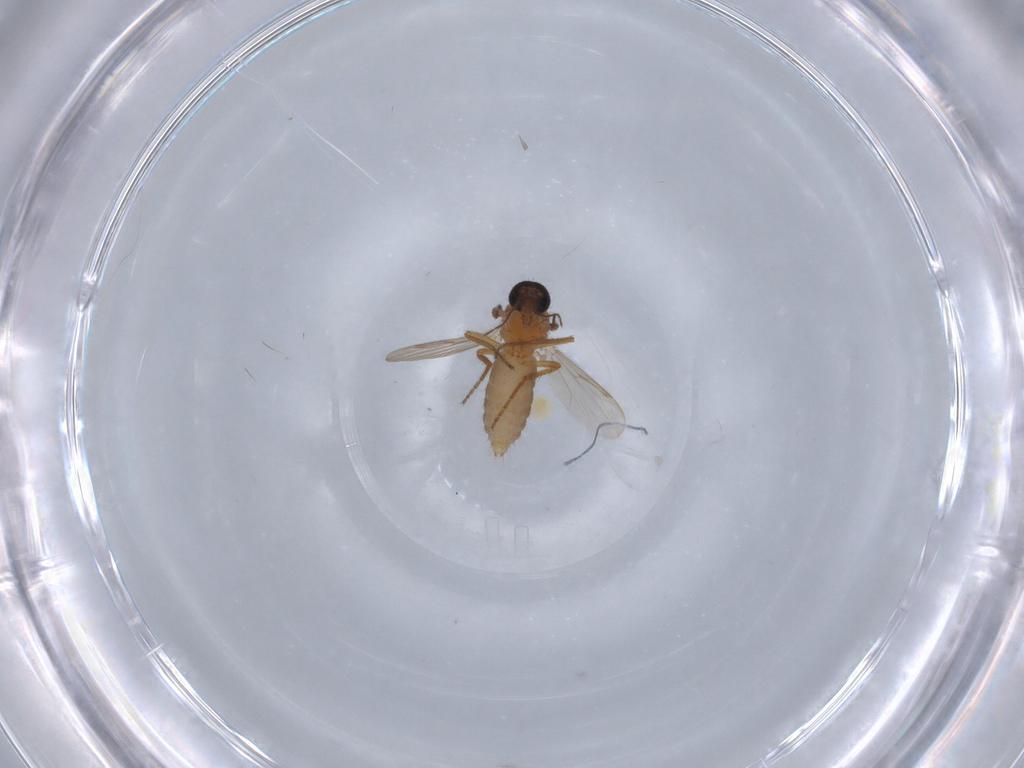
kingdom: Animalia
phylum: Arthropoda
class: Insecta
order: Diptera
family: Ceratopogonidae
